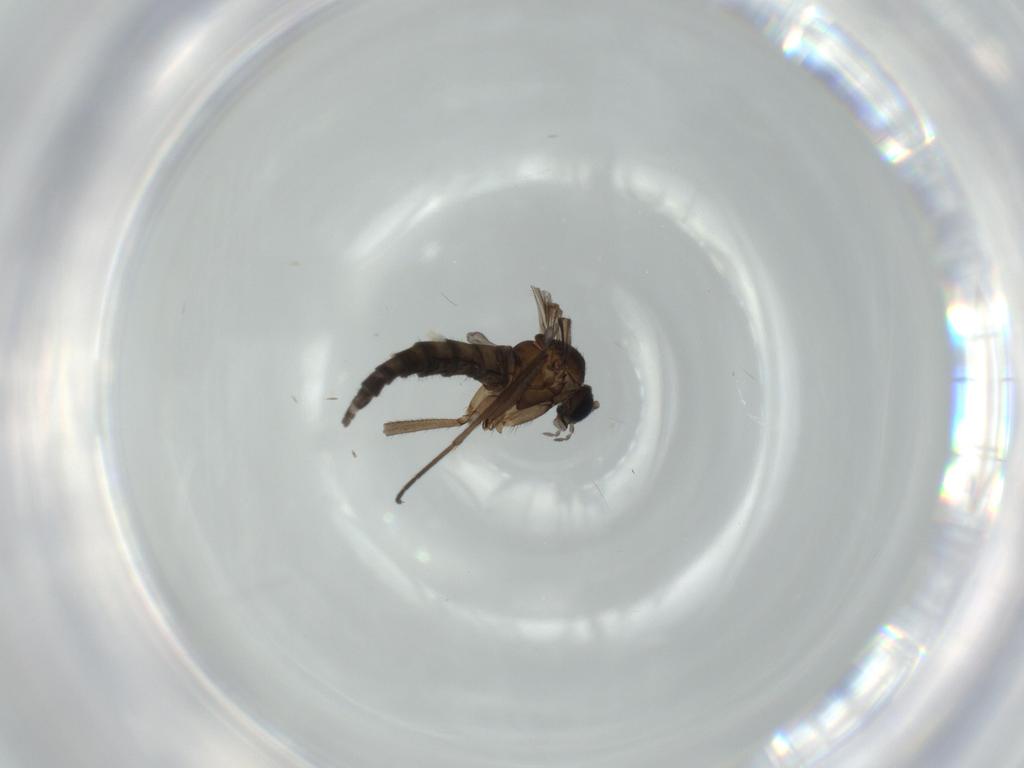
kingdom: Animalia
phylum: Arthropoda
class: Insecta
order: Diptera
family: Sciaridae
